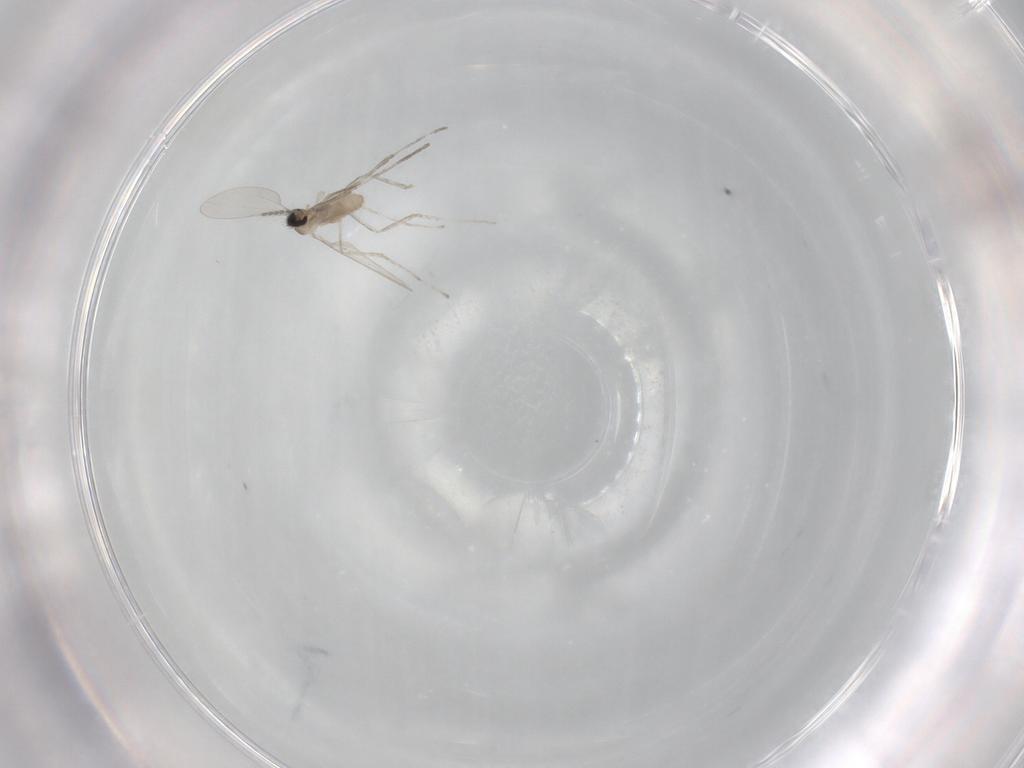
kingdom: Animalia
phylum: Arthropoda
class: Insecta
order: Diptera
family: Cecidomyiidae
